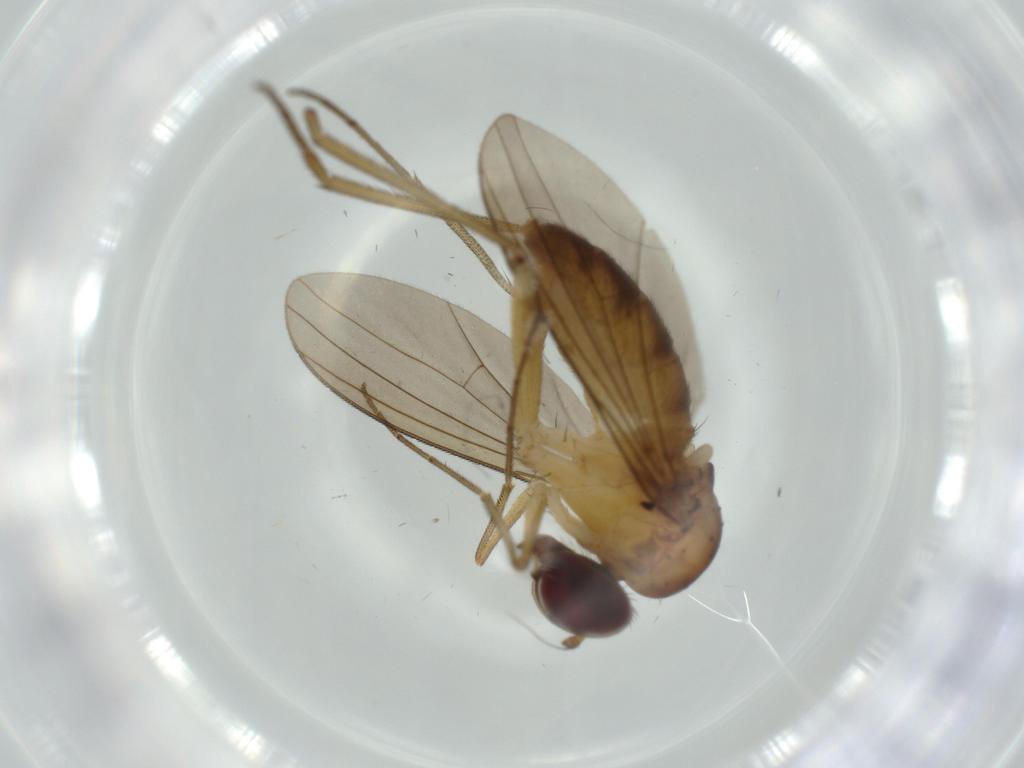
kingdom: Animalia
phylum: Arthropoda
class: Insecta
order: Diptera
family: Dolichopodidae
